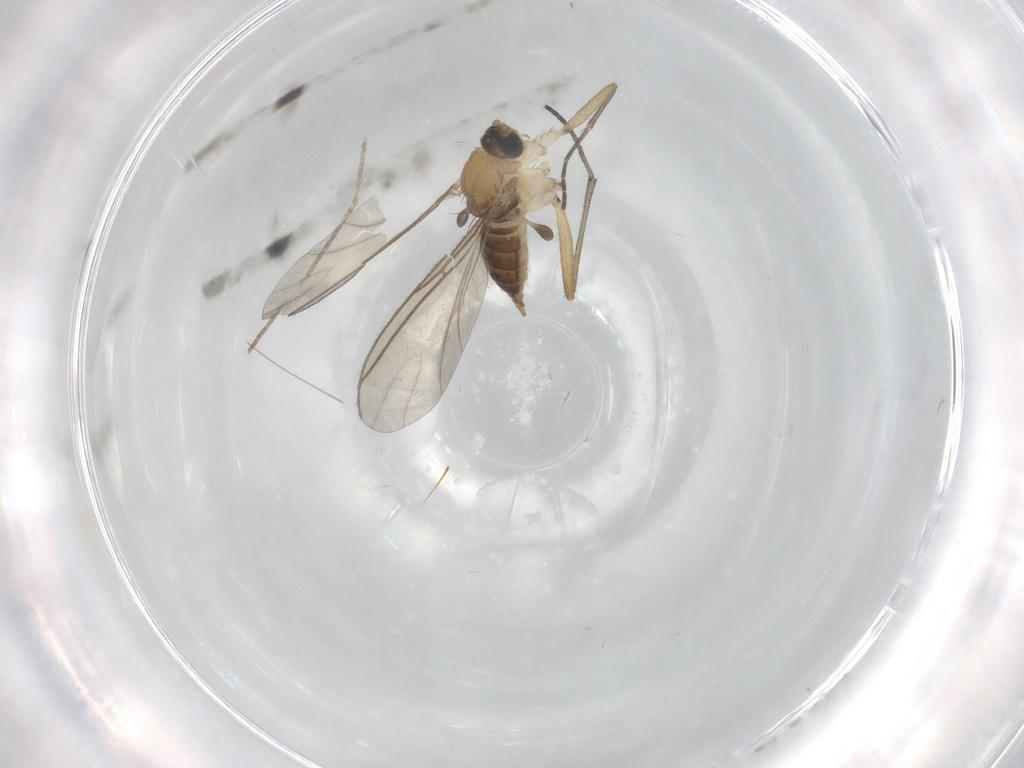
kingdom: Animalia
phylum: Arthropoda
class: Insecta
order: Diptera
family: Sciaridae
